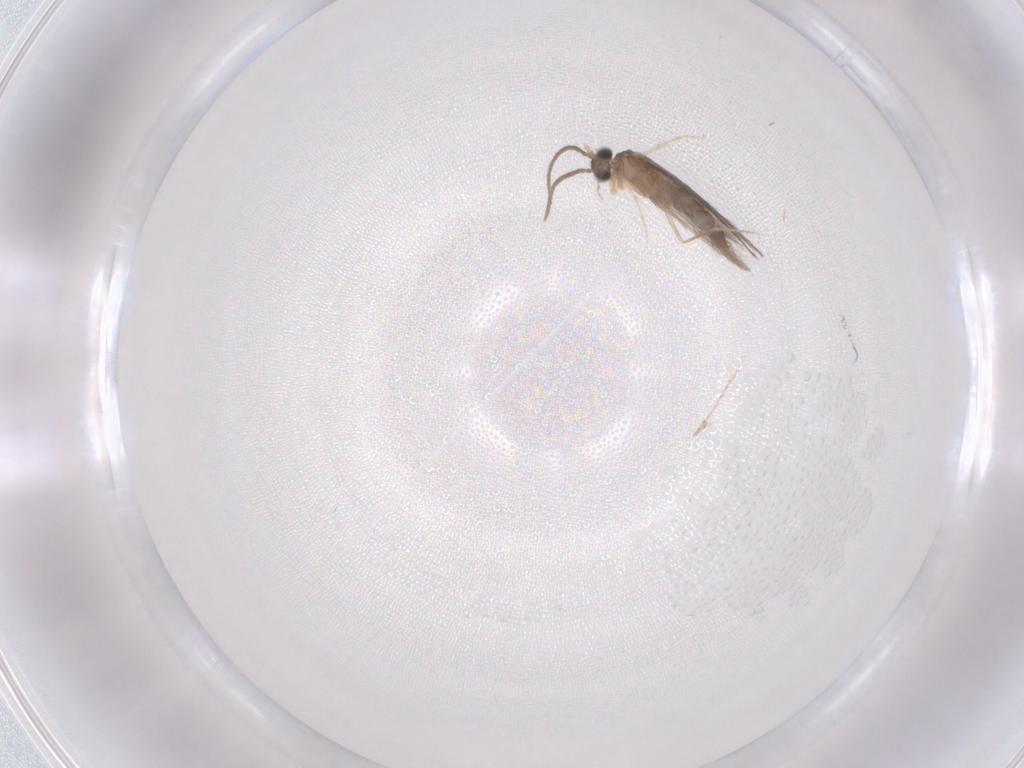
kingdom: Animalia
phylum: Arthropoda
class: Insecta
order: Trichoptera
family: Hydroptilidae
